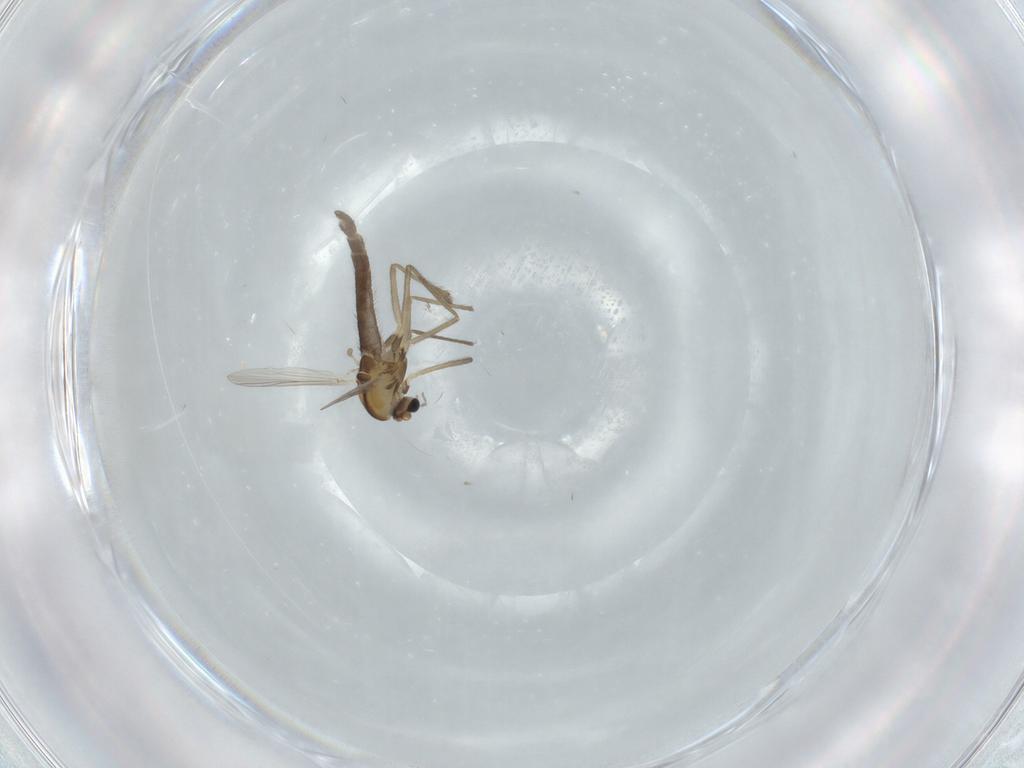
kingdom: Animalia
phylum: Arthropoda
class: Insecta
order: Diptera
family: Chironomidae
